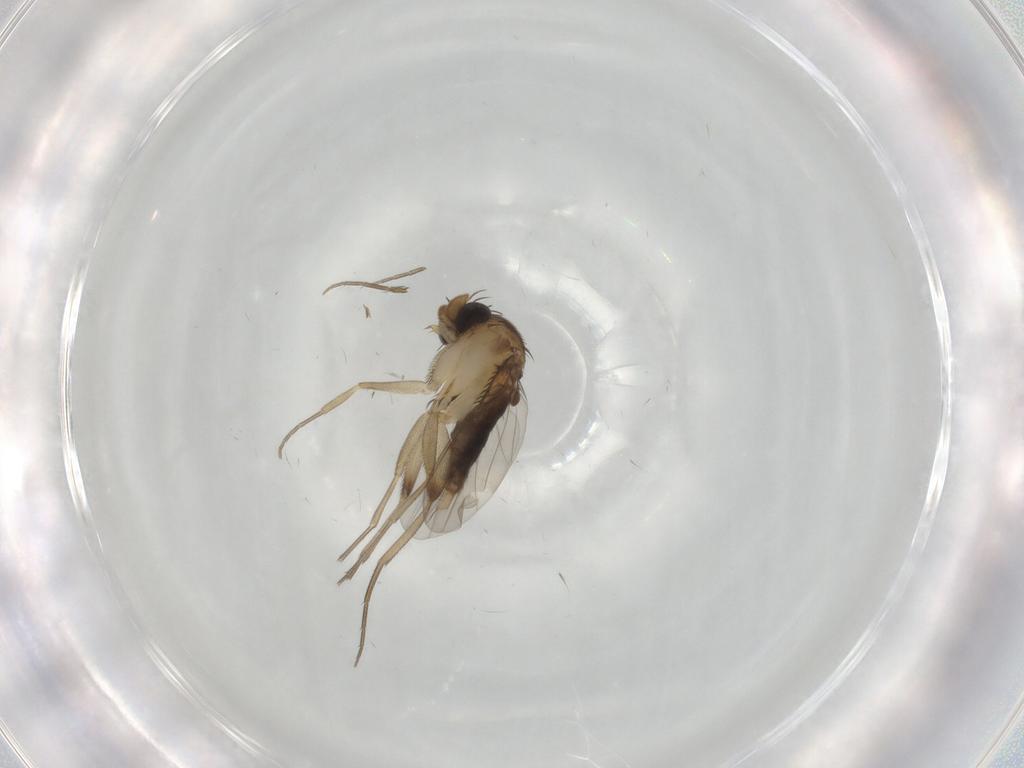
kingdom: Animalia
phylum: Arthropoda
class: Insecta
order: Diptera
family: Phoridae
